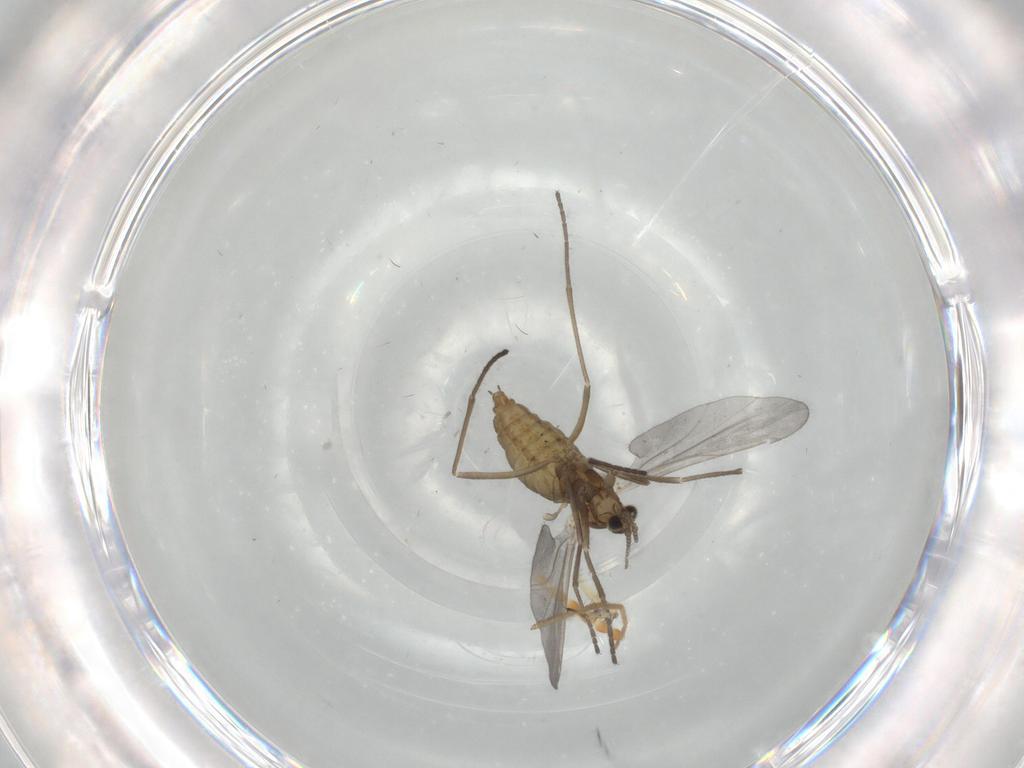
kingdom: Animalia
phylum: Arthropoda
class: Insecta
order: Diptera
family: Cecidomyiidae
